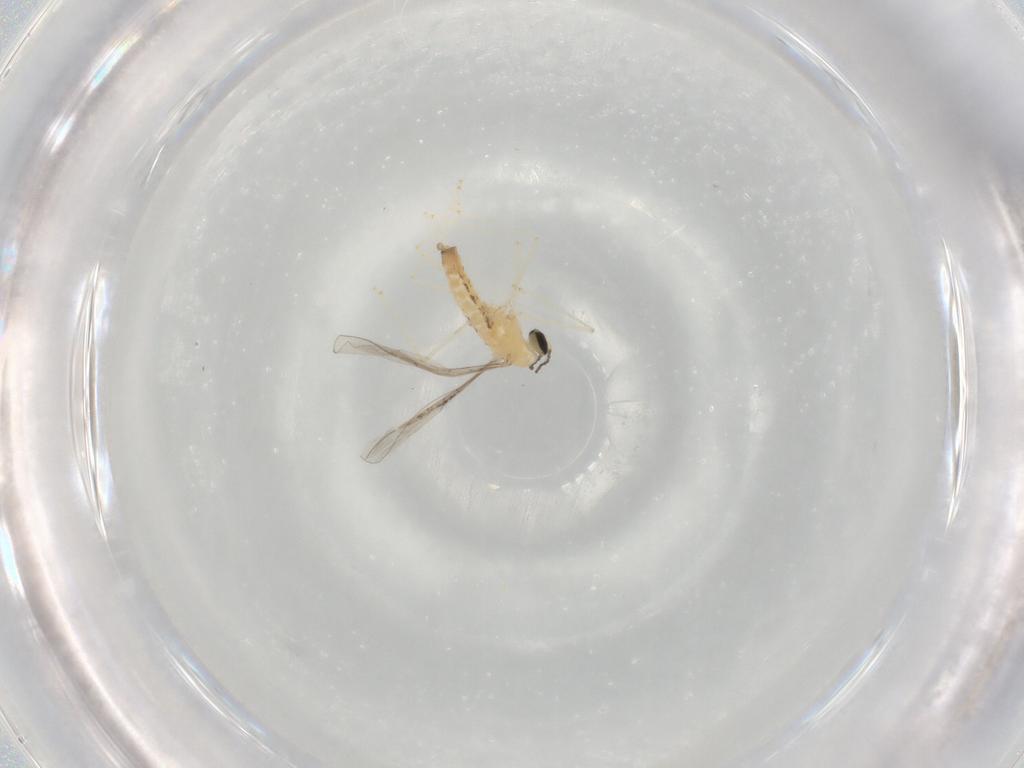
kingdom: Animalia
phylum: Arthropoda
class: Insecta
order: Diptera
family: Cecidomyiidae
